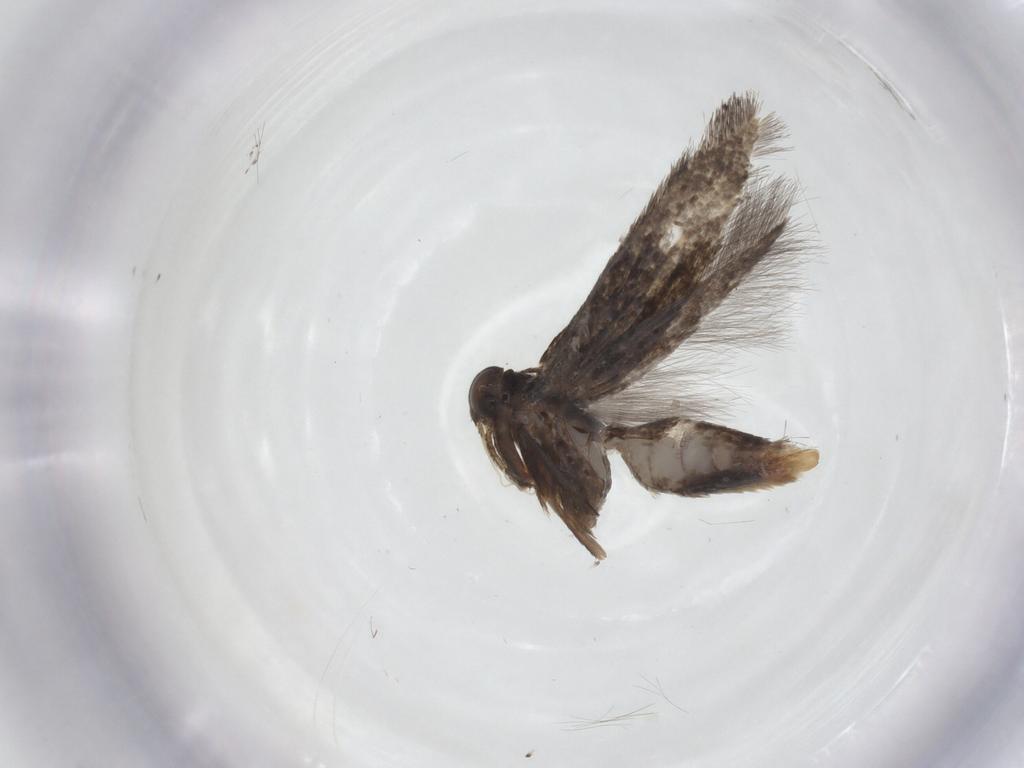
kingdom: Animalia
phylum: Arthropoda
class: Insecta
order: Lepidoptera
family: Elachistidae
